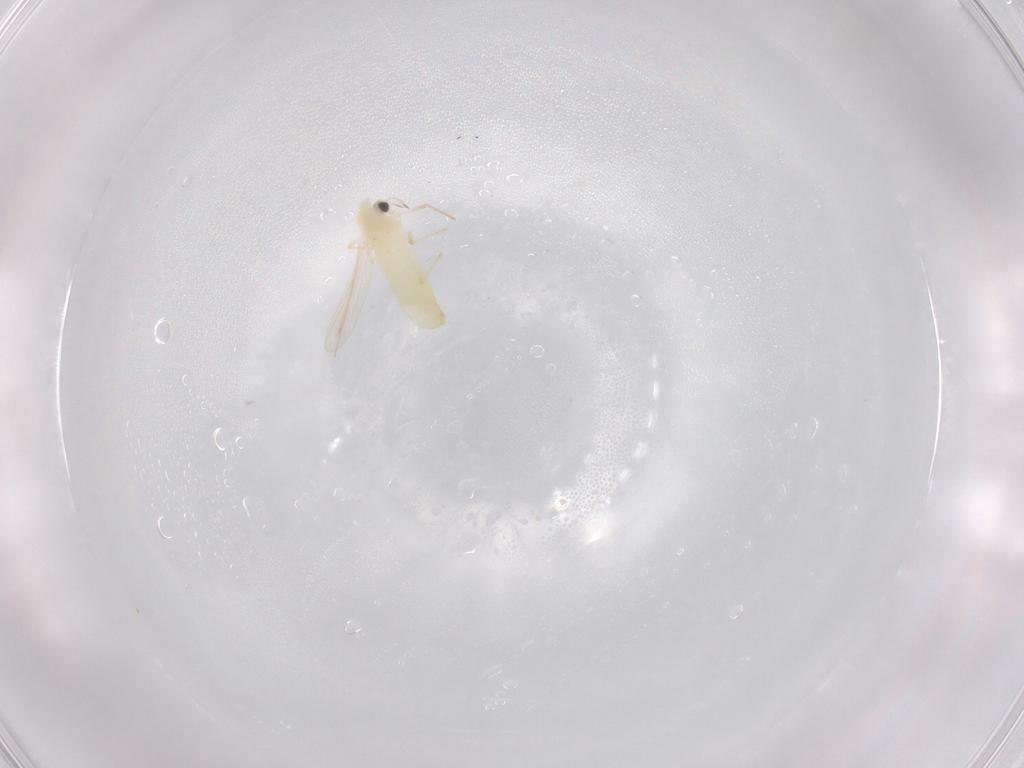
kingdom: Animalia
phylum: Arthropoda
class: Insecta
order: Diptera
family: Chironomidae
